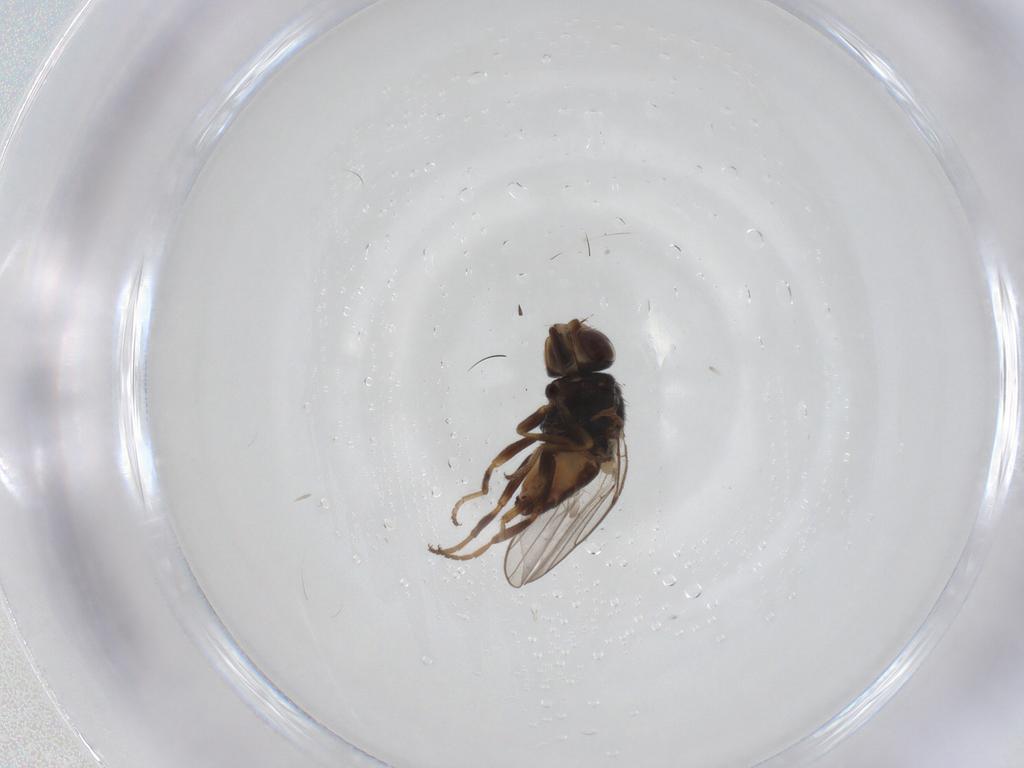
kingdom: Animalia
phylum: Arthropoda
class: Insecta
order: Diptera
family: Chloropidae
